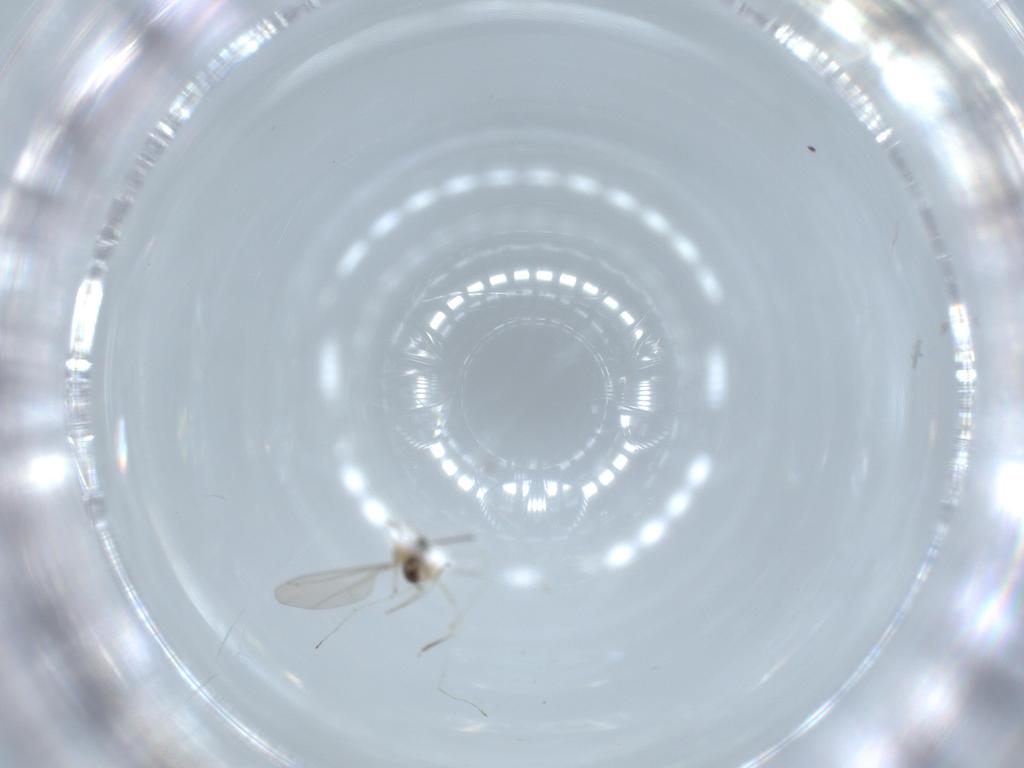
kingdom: Animalia
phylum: Arthropoda
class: Insecta
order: Diptera
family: Cecidomyiidae
